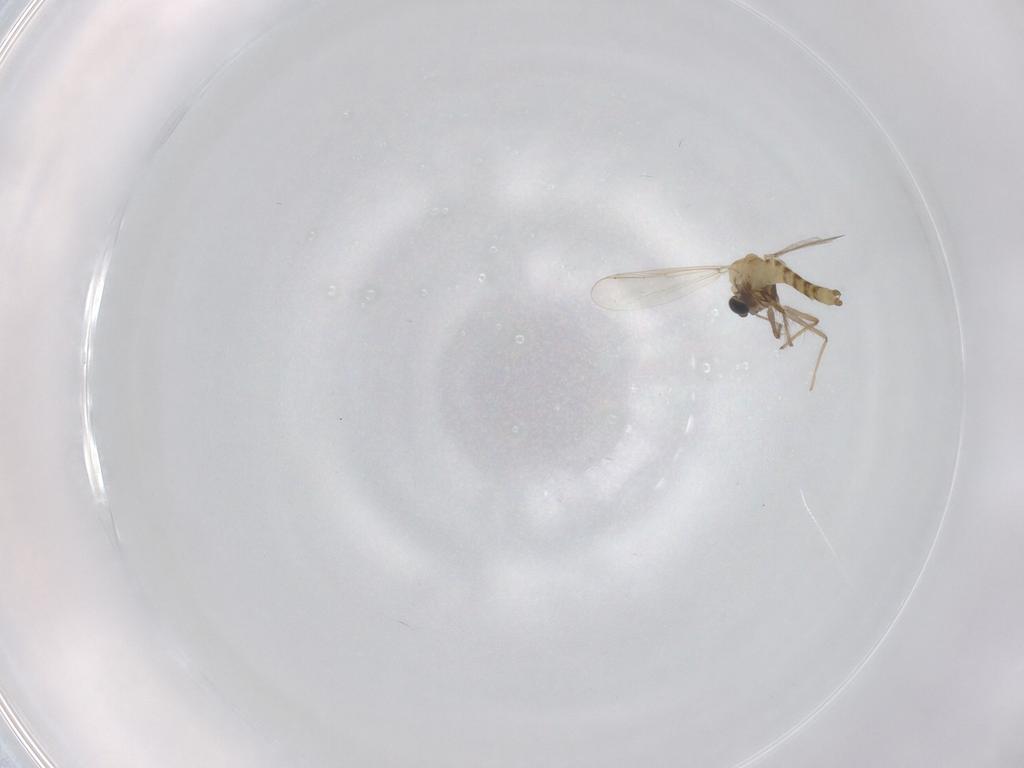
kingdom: Animalia
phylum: Arthropoda
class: Insecta
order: Diptera
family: Chironomidae
